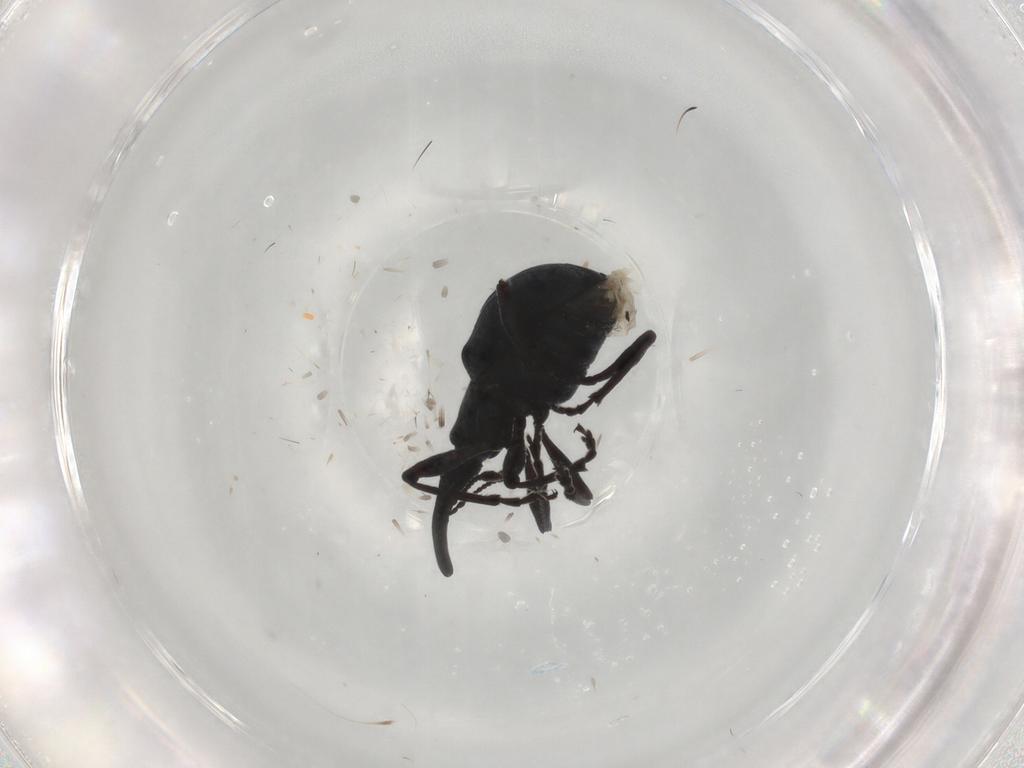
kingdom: Animalia
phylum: Arthropoda
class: Insecta
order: Coleoptera
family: Brentidae
